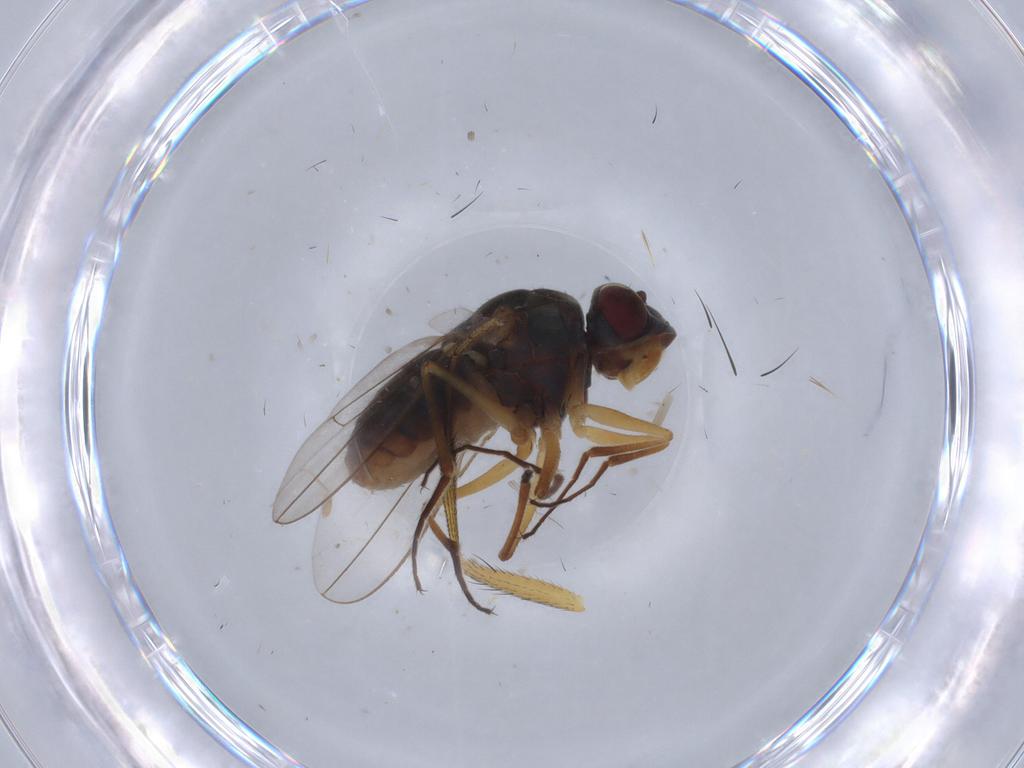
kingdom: Animalia
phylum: Arthropoda
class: Insecta
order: Diptera
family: Ephydridae
